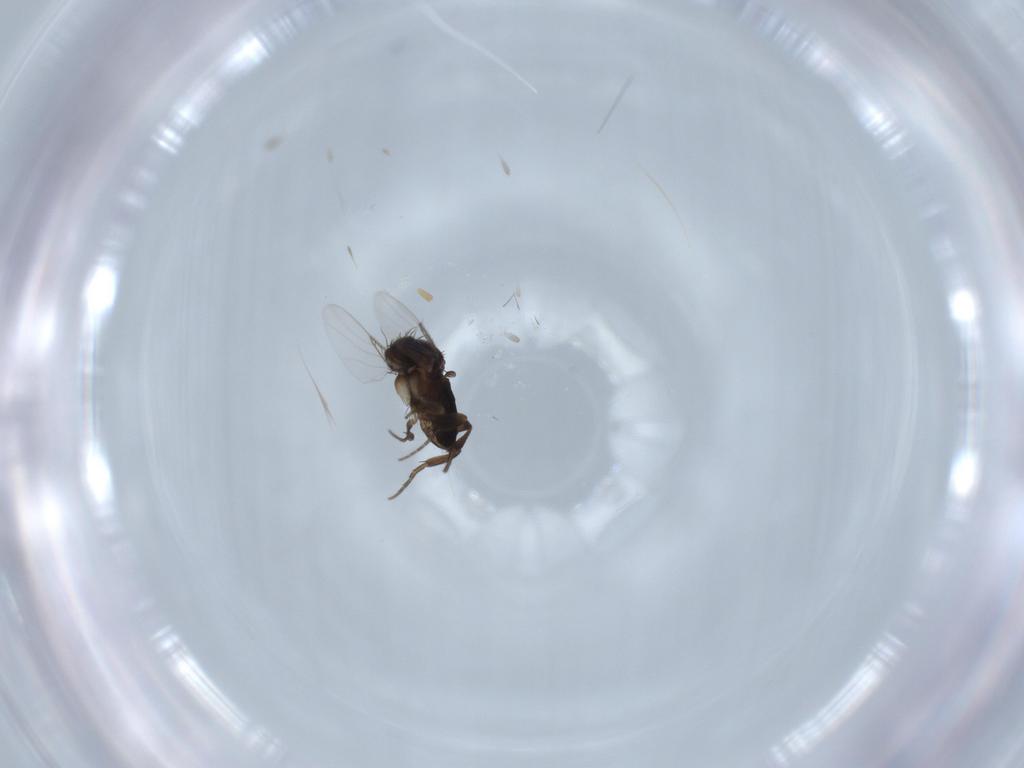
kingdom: Animalia
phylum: Arthropoda
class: Insecta
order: Diptera
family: Phoridae
